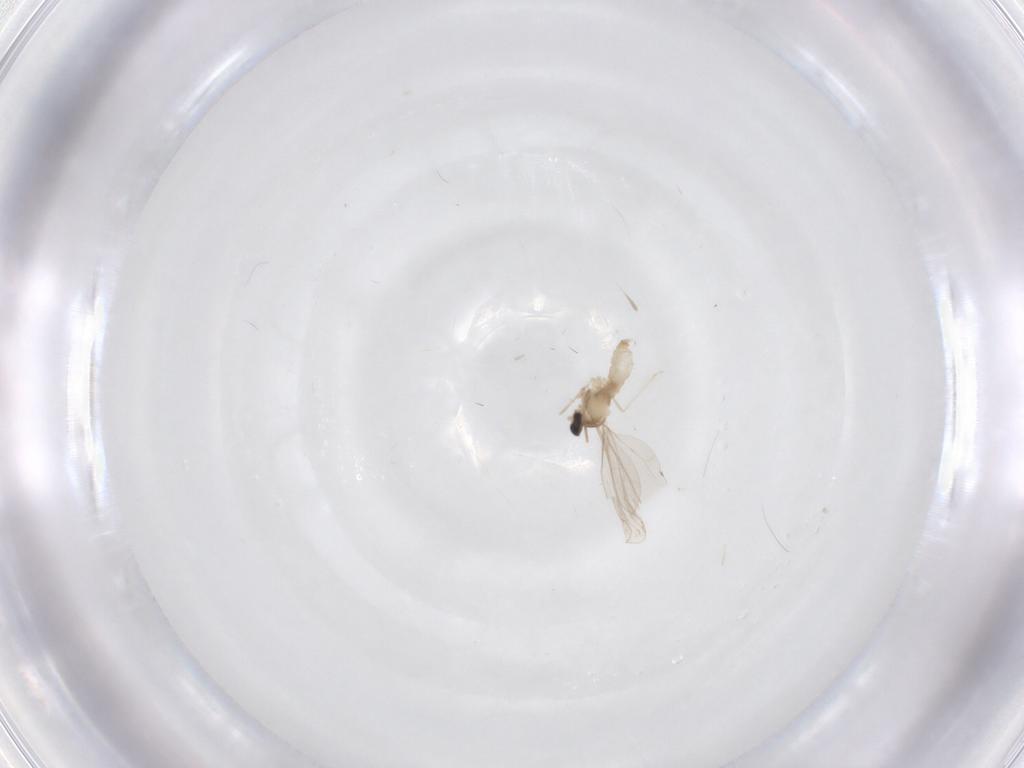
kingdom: Animalia
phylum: Arthropoda
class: Insecta
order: Diptera
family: Cecidomyiidae
